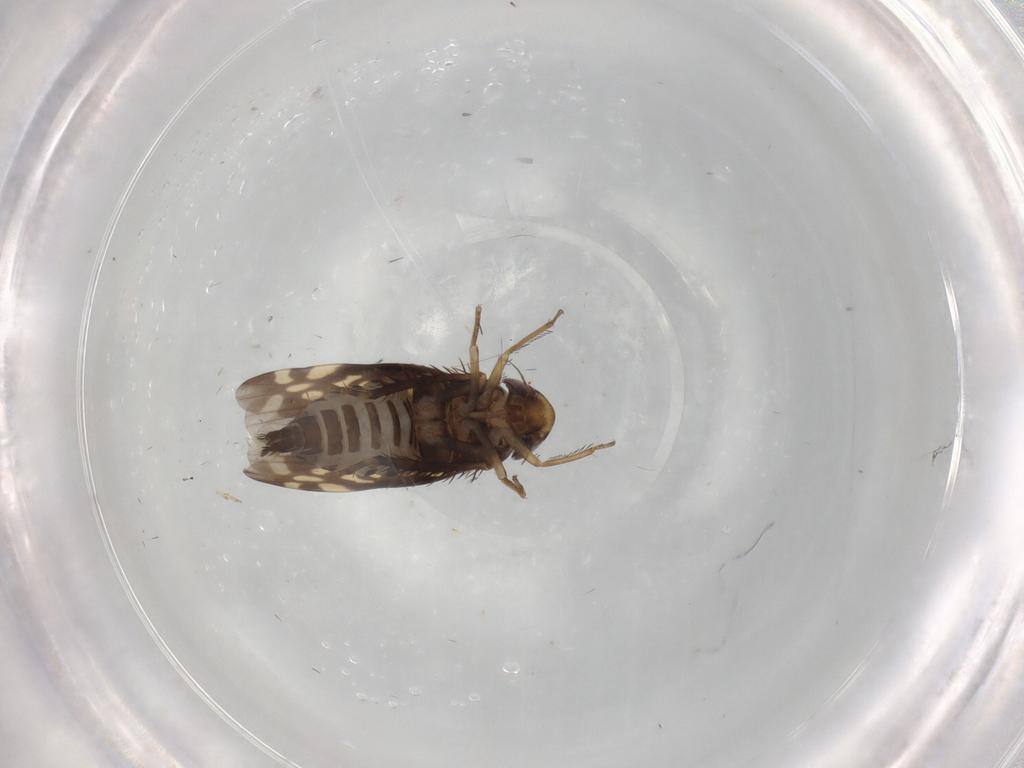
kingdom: Animalia
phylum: Arthropoda
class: Insecta
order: Hemiptera
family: Cicadellidae
